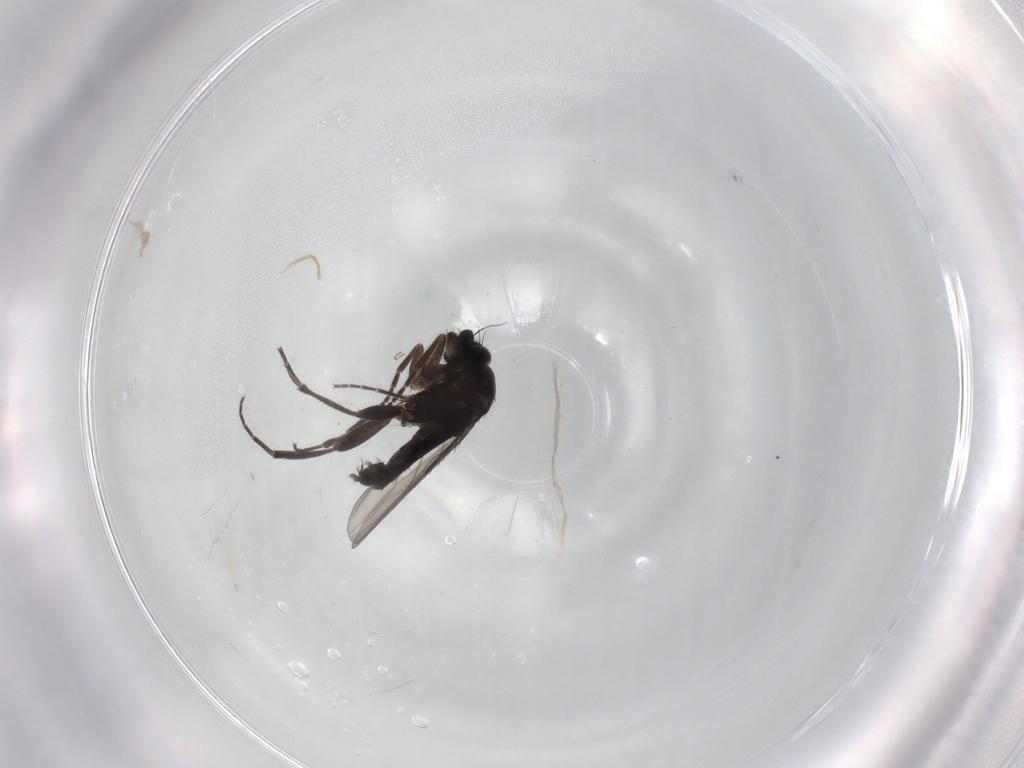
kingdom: Animalia
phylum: Arthropoda
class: Insecta
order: Diptera
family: Phoridae
